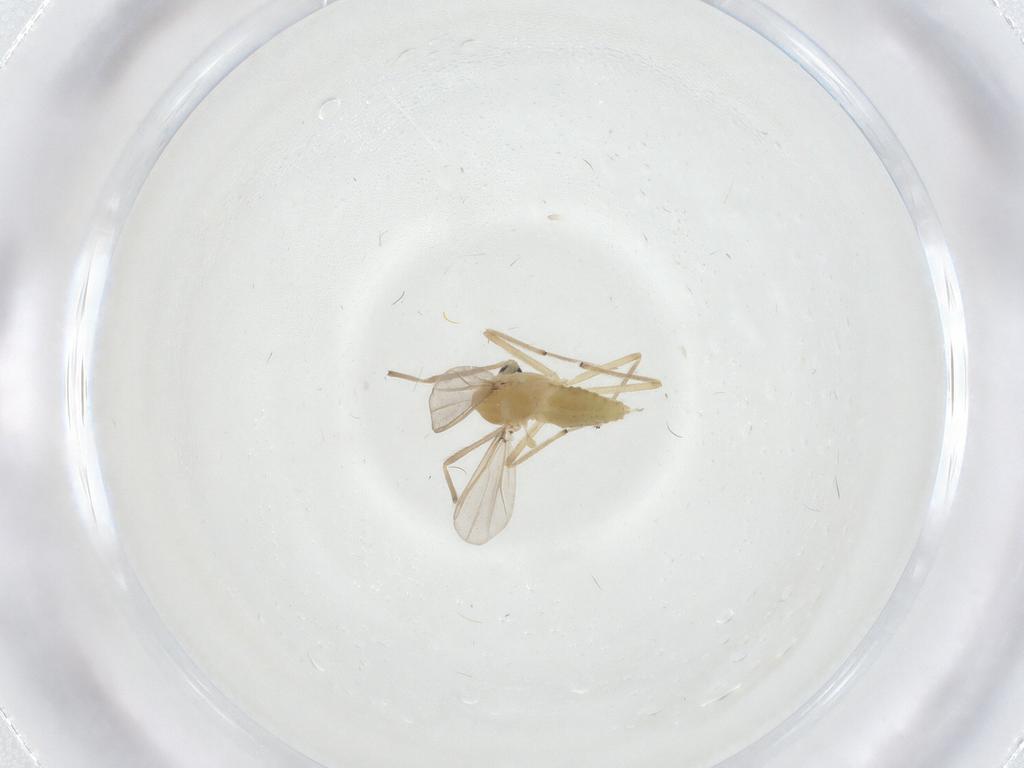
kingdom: Animalia
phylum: Arthropoda
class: Insecta
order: Diptera
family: Chironomidae
